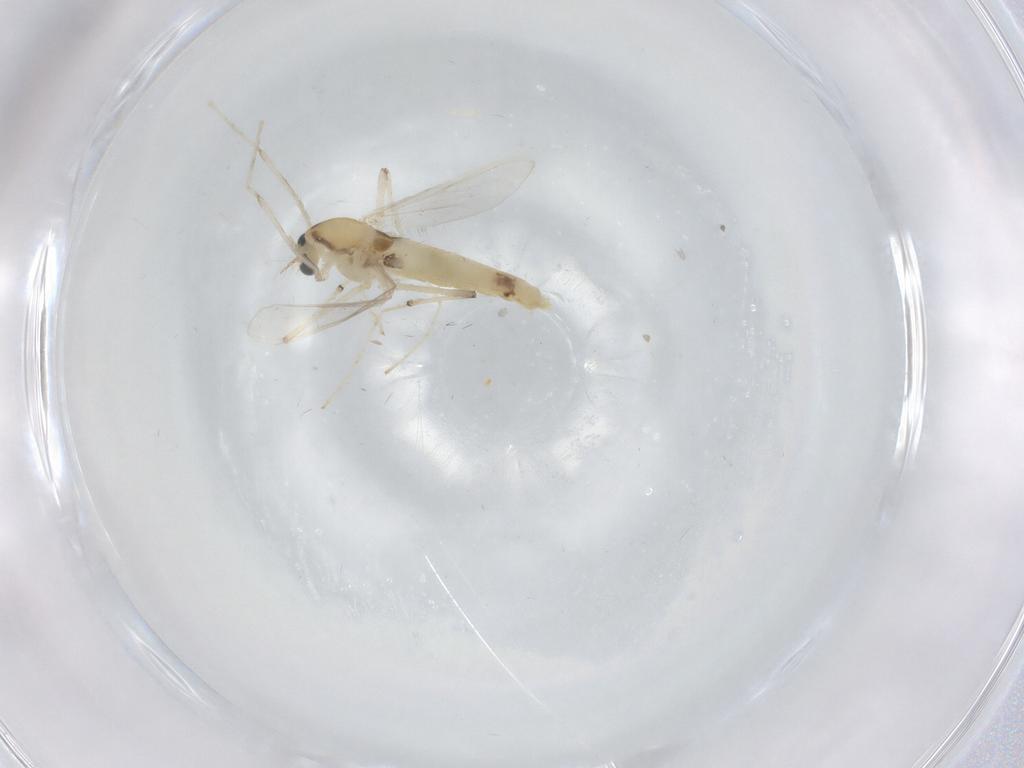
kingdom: Animalia
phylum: Arthropoda
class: Insecta
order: Diptera
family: Chironomidae
